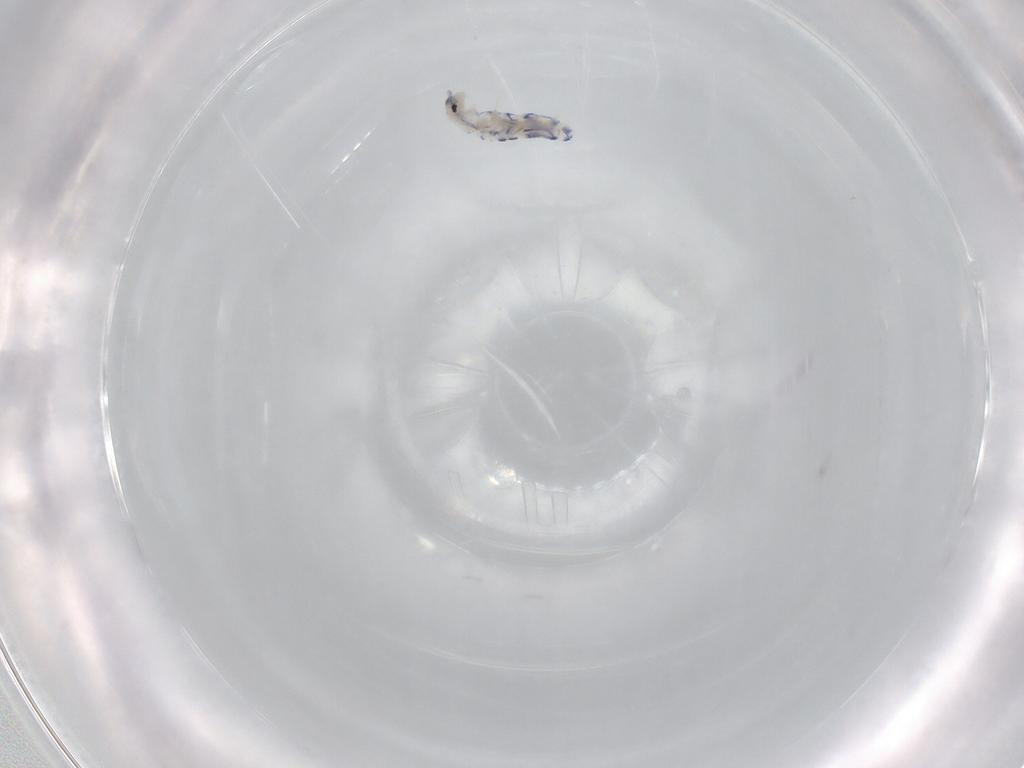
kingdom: Animalia
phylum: Arthropoda
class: Collembola
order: Entomobryomorpha
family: Entomobryidae
